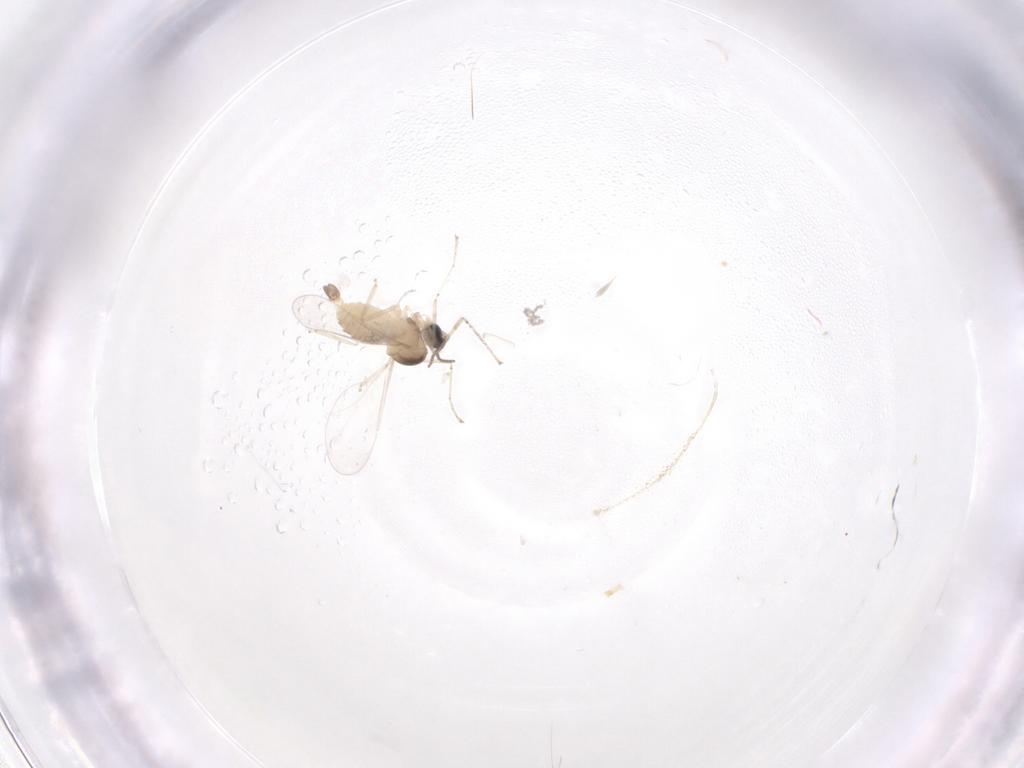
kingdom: Animalia
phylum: Arthropoda
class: Insecta
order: Diptera
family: Cecidomyiidae
